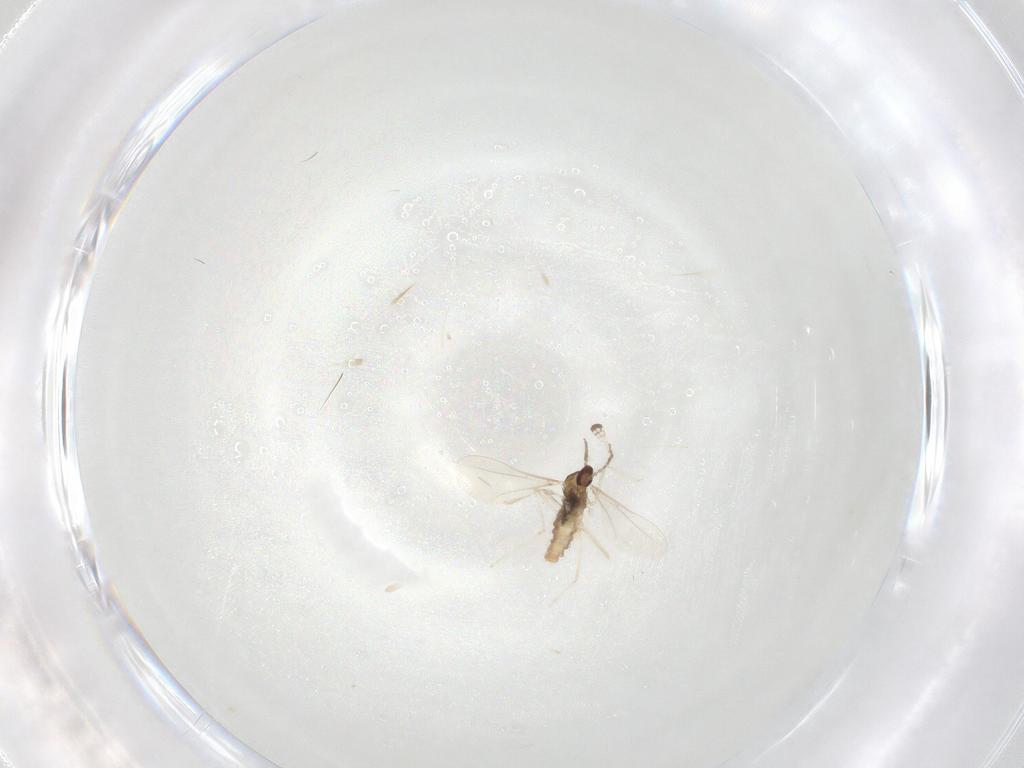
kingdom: Animalia
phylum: Arthropoda
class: Insecta
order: Diptera
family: Cecidomyiidae
